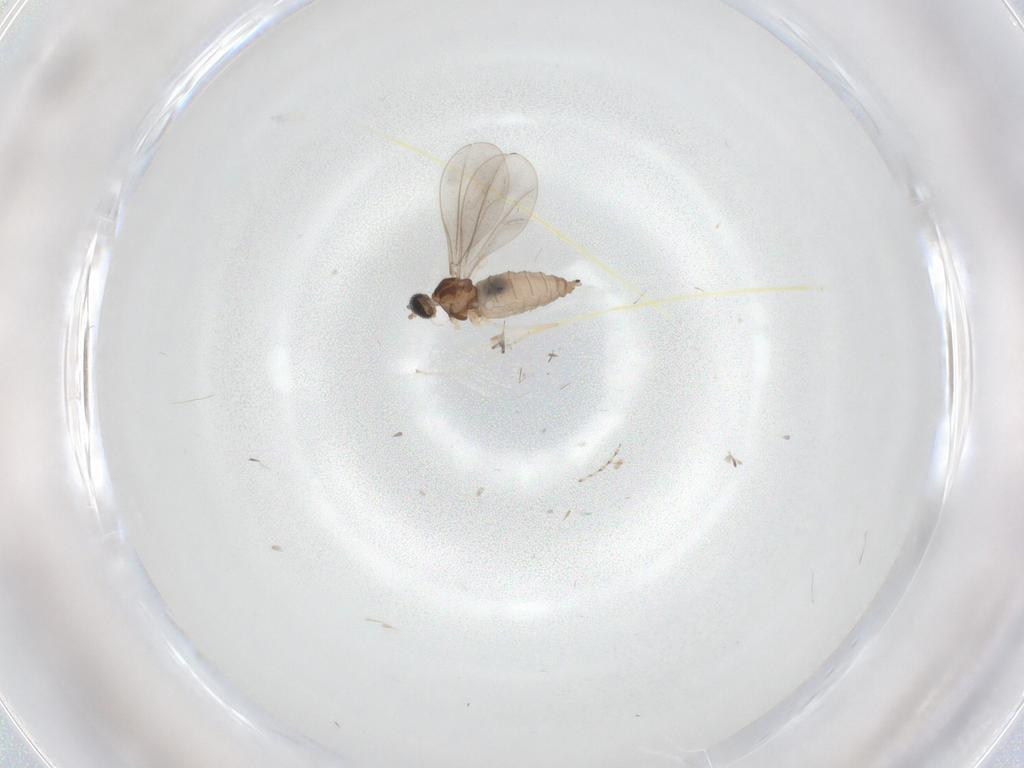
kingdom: Animalia
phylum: Arthropoda
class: Insecta
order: Diptera
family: Cecidomyiidae
